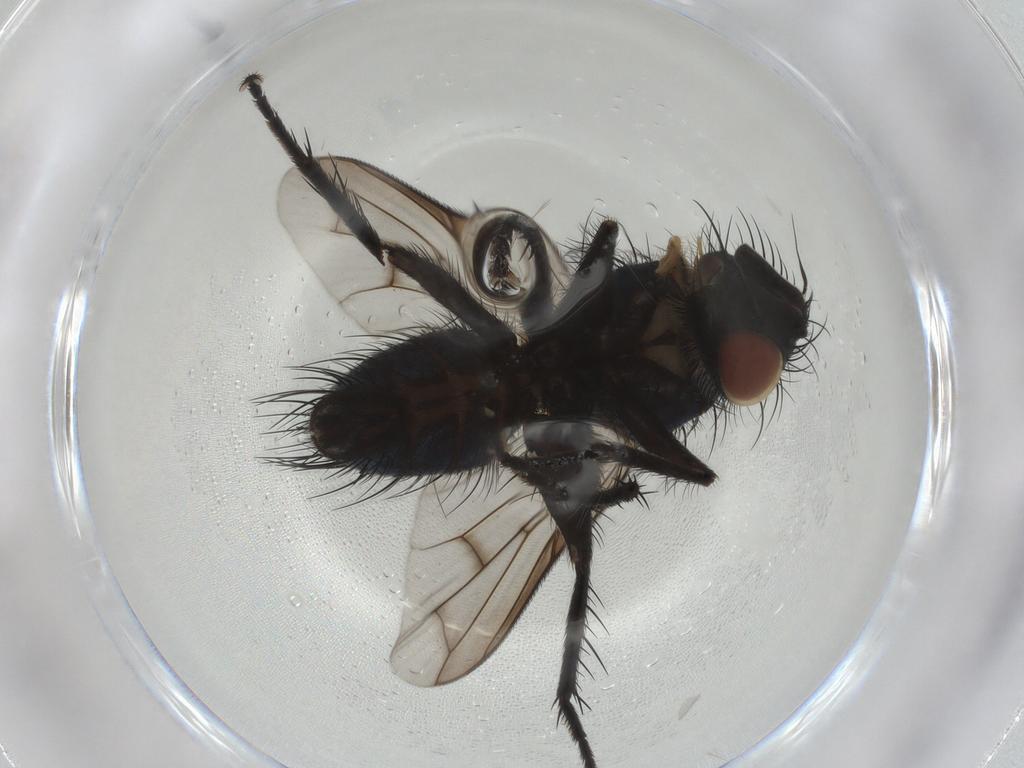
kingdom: Animalia
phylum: Arthropoda
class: Insecta
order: Diptera
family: Tachinidae
